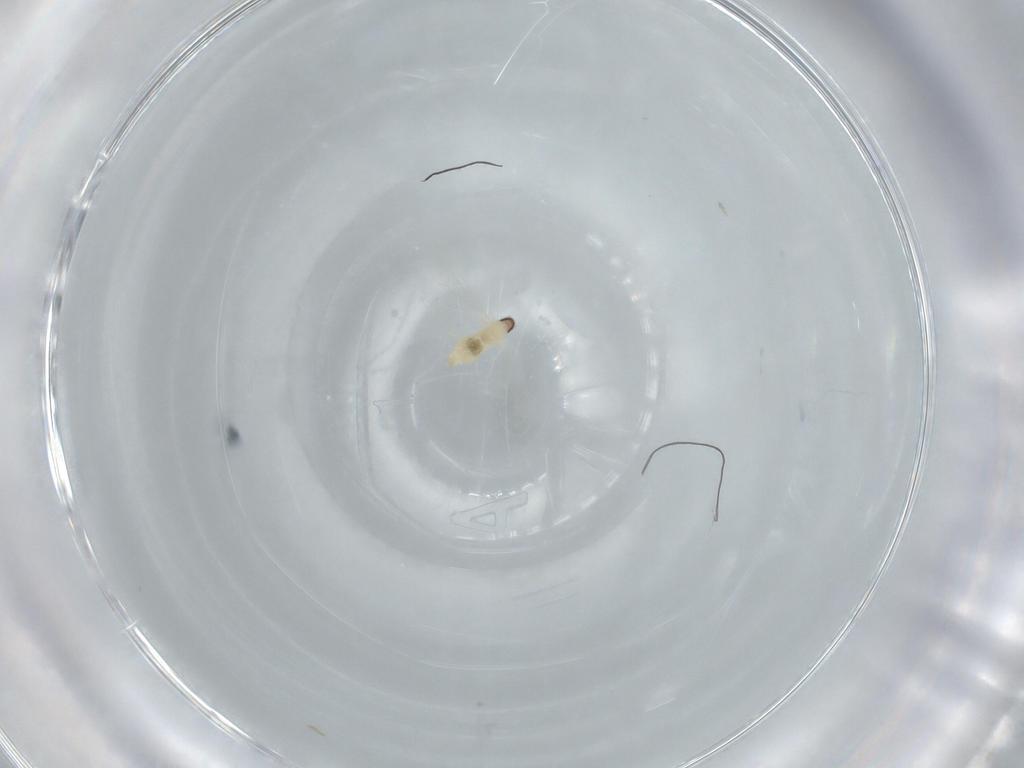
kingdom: Animalia
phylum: Arthropoda
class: Insecta
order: Diptera
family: Cecidomyiidae
